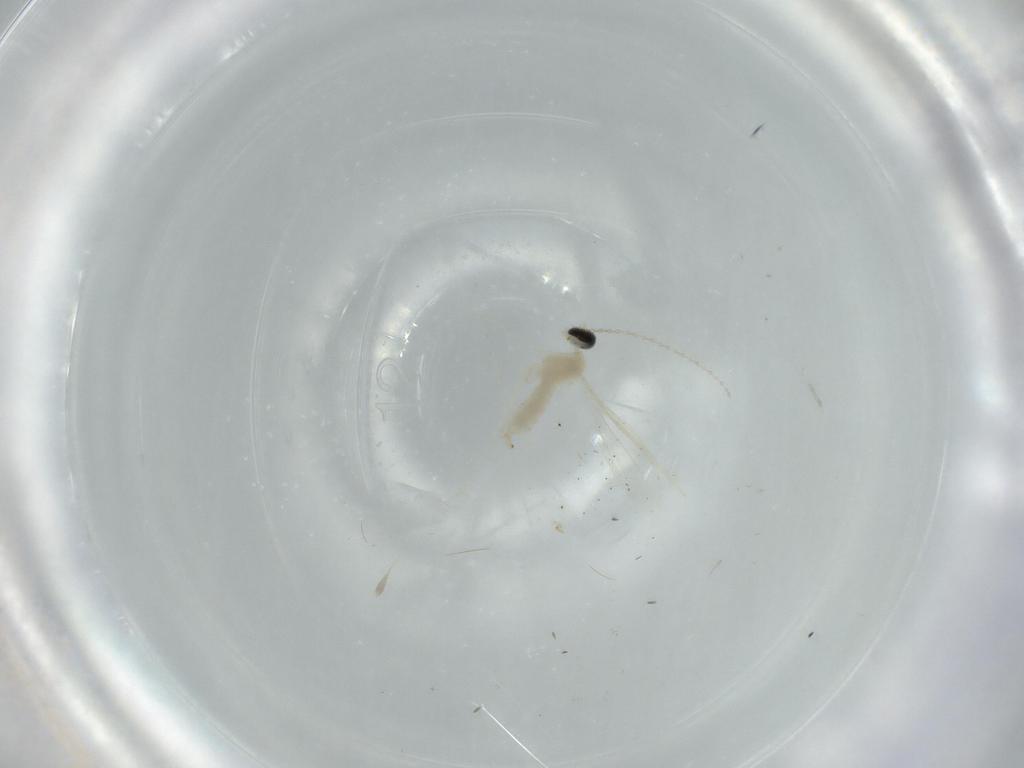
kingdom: Animalia
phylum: Arthropoda
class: Insecta
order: Diptera
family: Cecidomyiidae
